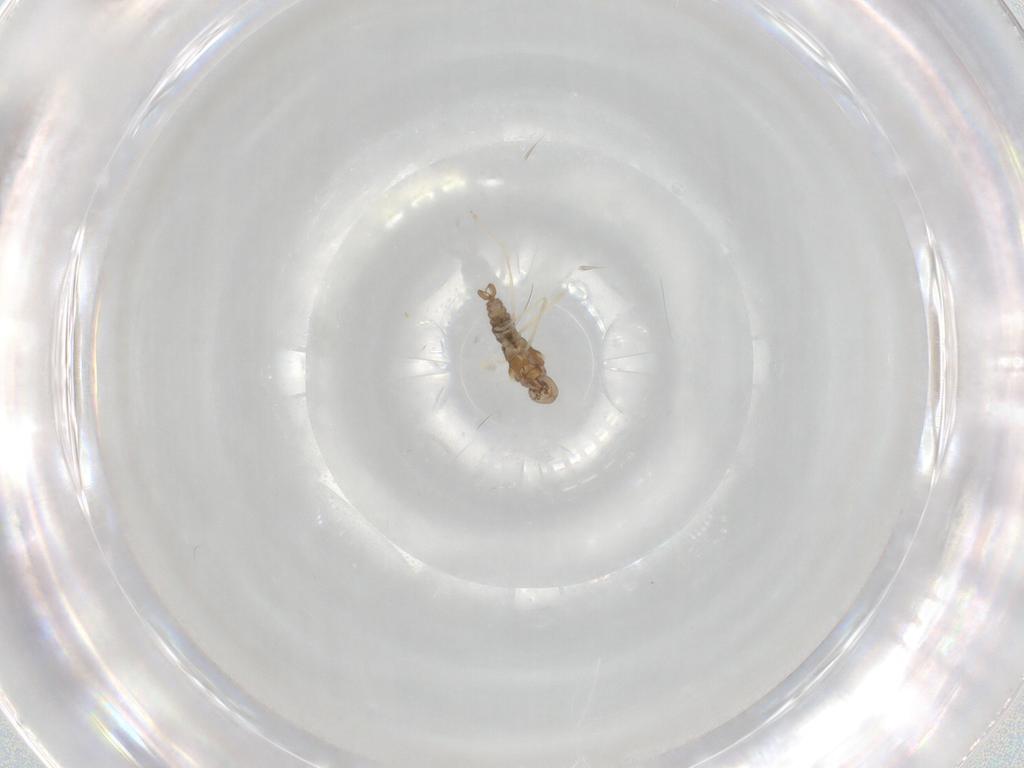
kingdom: Animalia
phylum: Arthropoda
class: Insecta
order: Diptera
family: Cecidomyiidae
